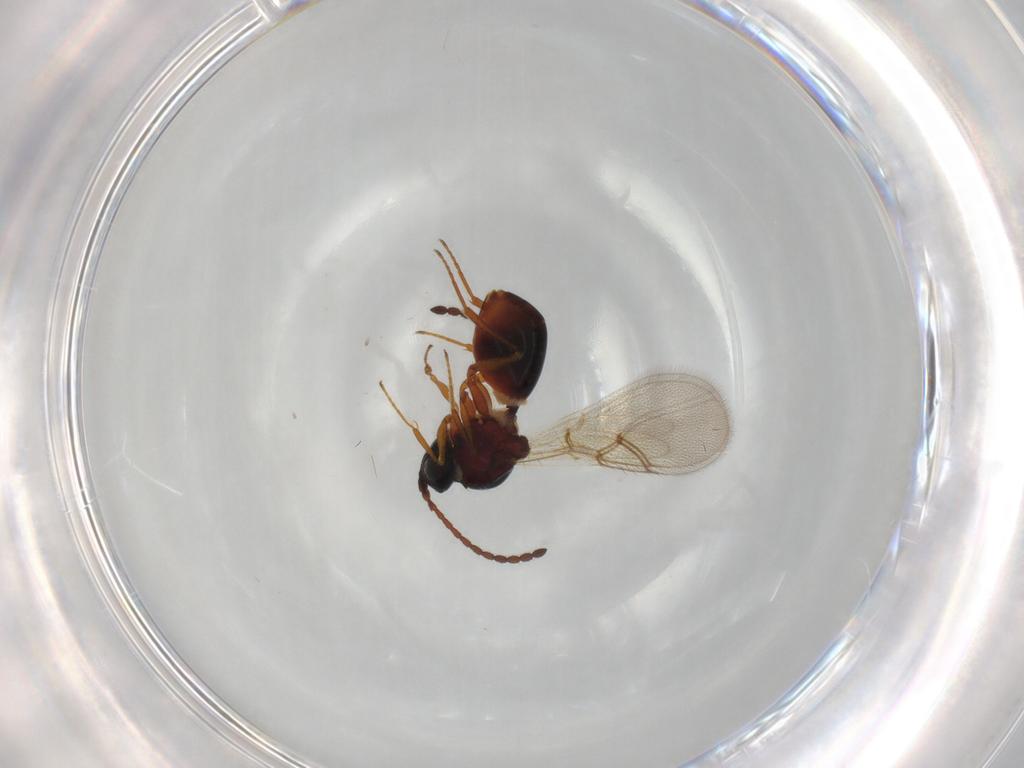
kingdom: Animalia
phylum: Arthropoda
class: Insecta
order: Hymenoptera
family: Figitidae
